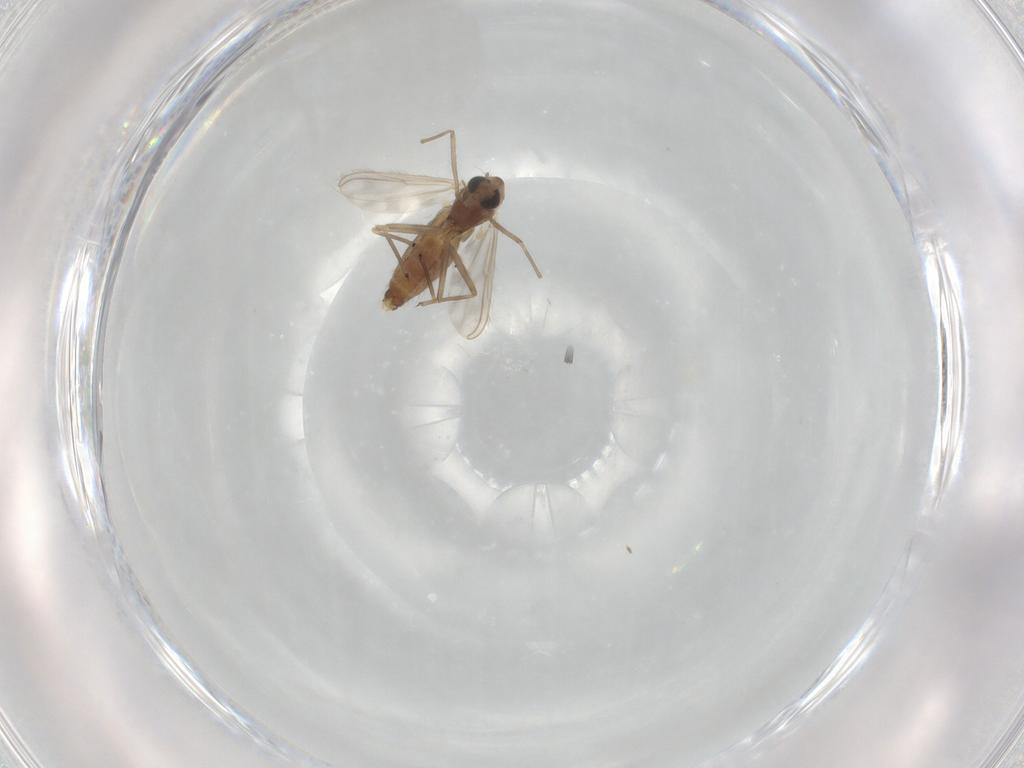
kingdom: Animalia
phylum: Arthropoda
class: Insecta
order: Diptera
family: Chironomidae
